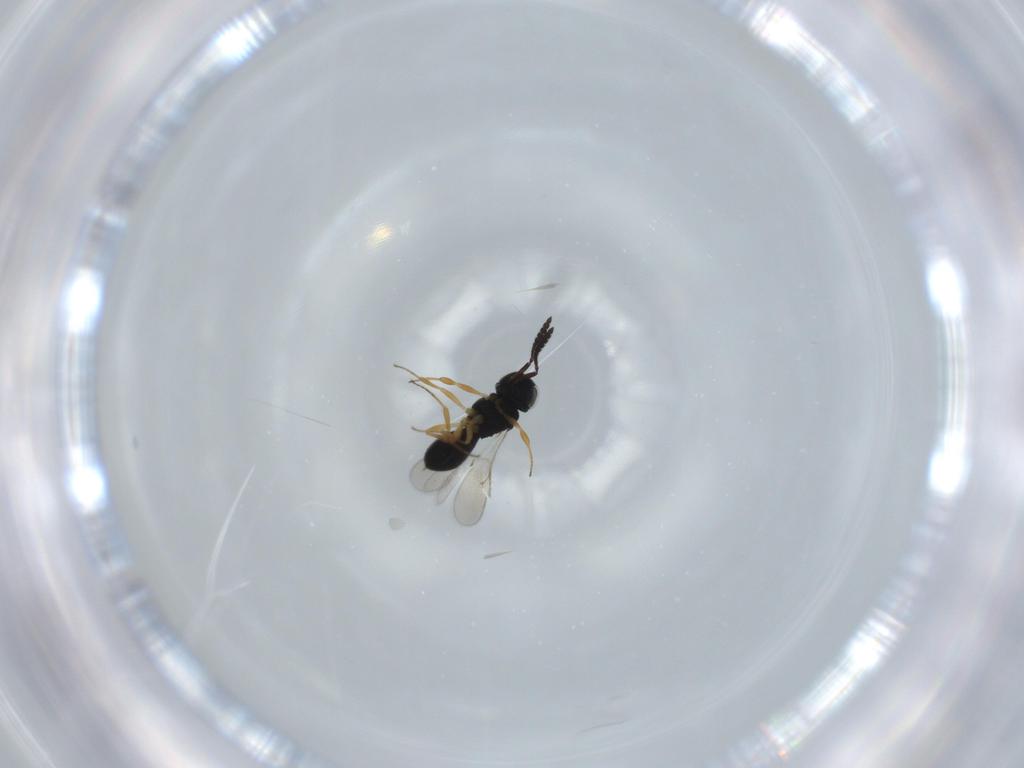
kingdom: Animalia
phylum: Arthropoda
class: Insecta
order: Hymenoptera
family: Scelionidae
